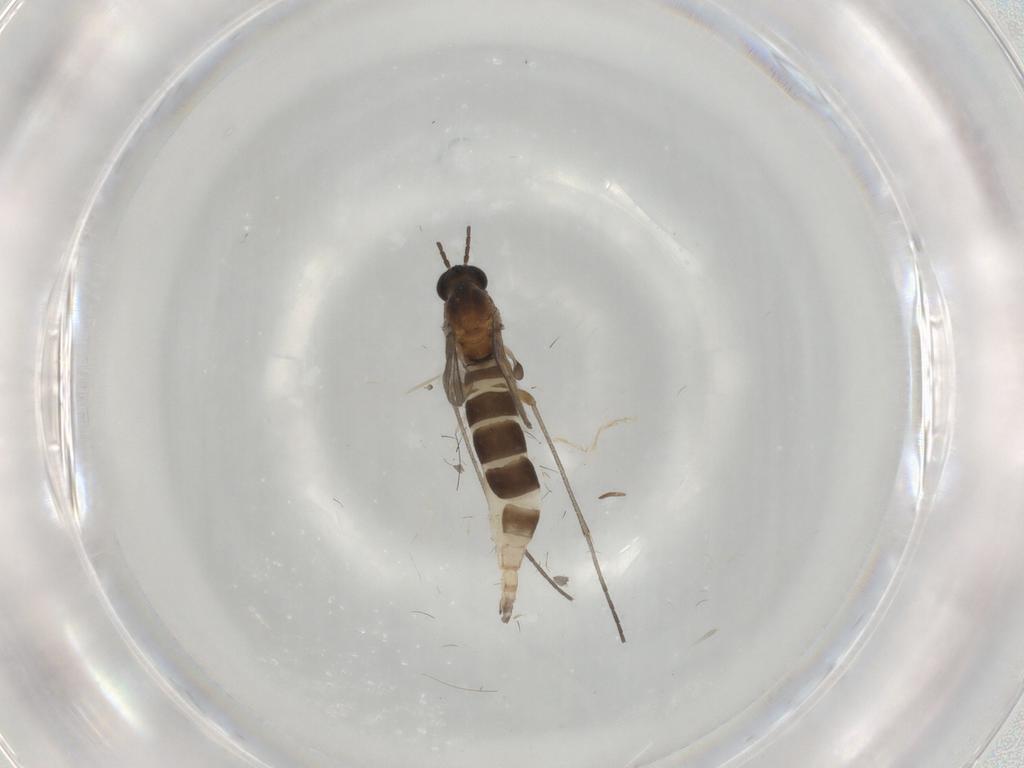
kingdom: Animalia
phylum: Arthropoda
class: Insecta
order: Diptera
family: Sciaridae
